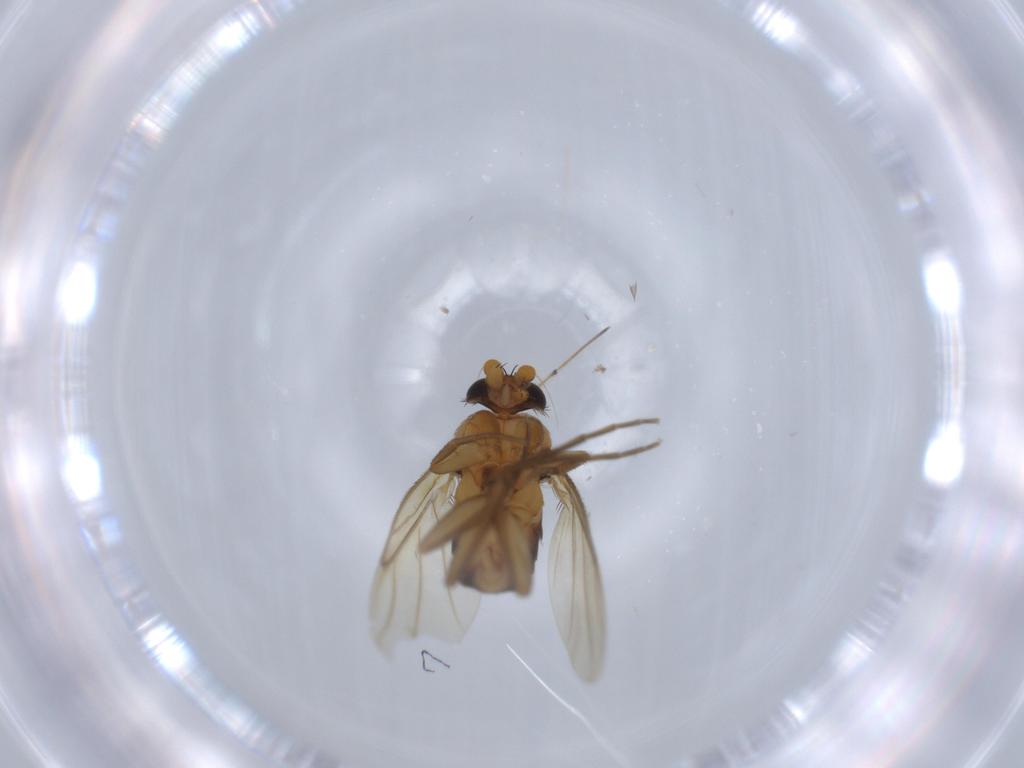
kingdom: Animalia
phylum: Arthropoda
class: Insecta
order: Diptera
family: Phoridae
